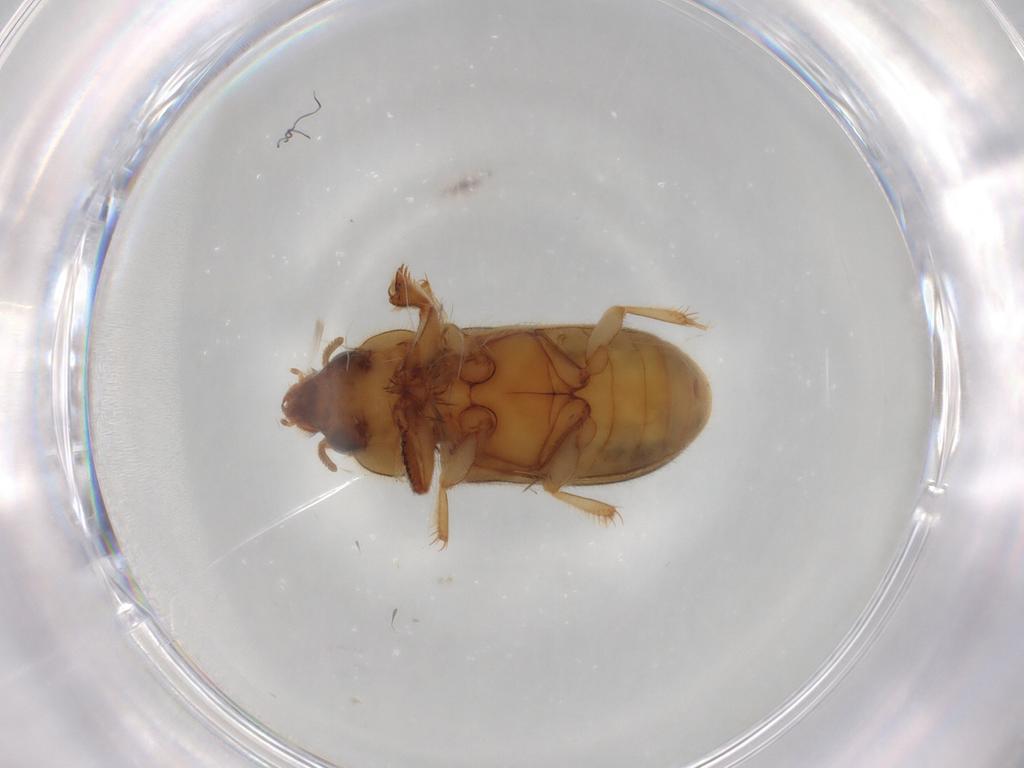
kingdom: Animalia
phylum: Arthropoda
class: Insecta
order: Coleoptera
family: Heteroceridae
